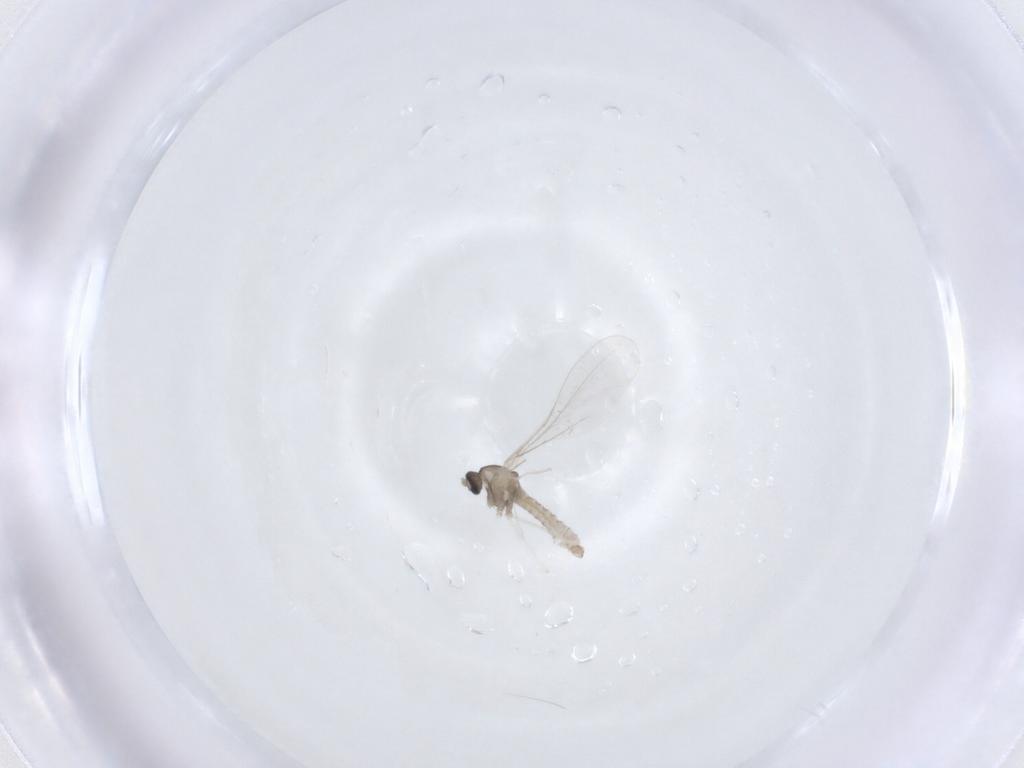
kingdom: Animalia
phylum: Arthropoda
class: Insecta
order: Diptera
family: Cecidomyiidae
